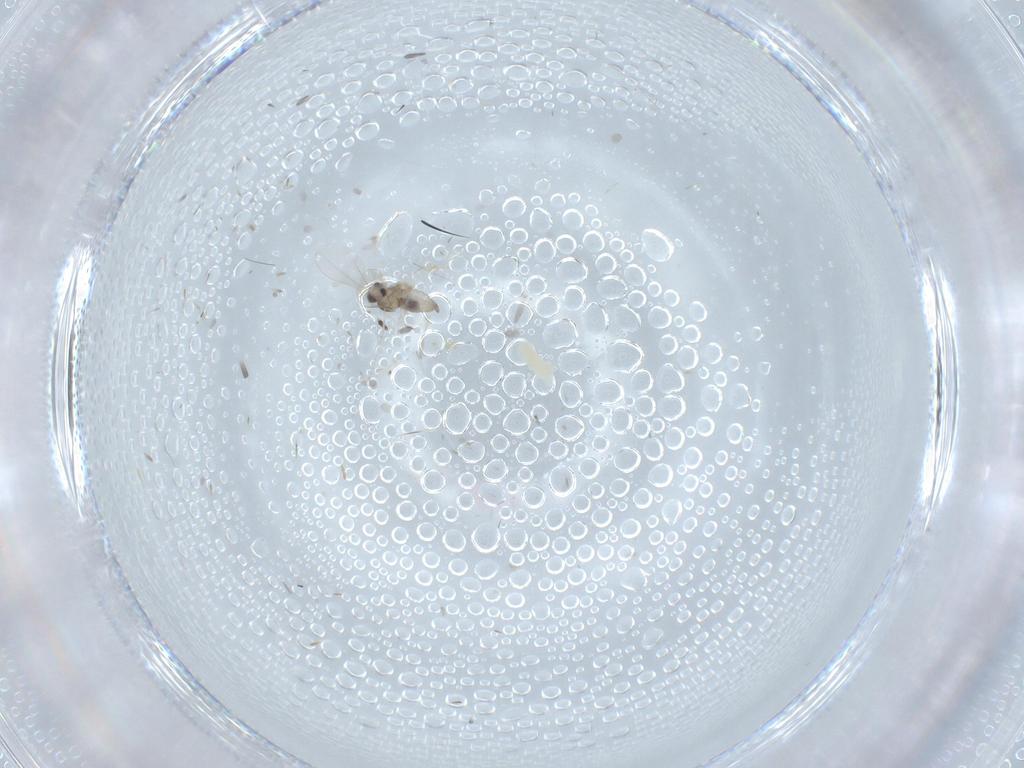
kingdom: Animalia
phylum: Arthropoda
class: Insecta
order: Diptera
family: Cecidomyiidae
